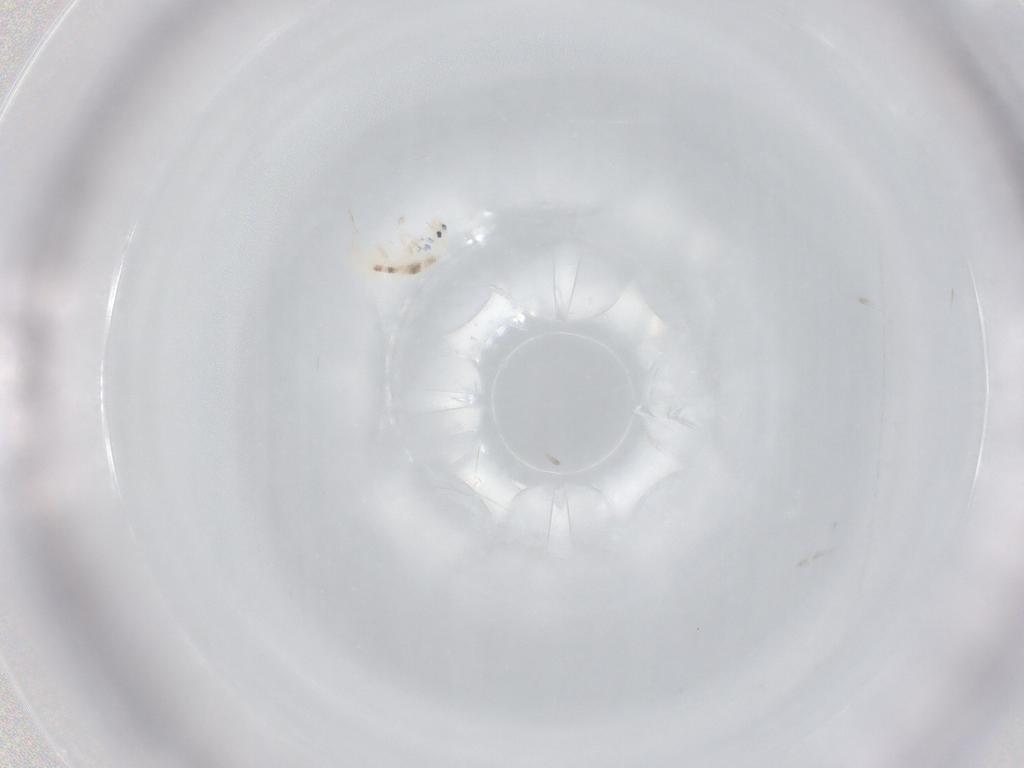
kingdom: Animalia
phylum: Arthropoda
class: Collembola
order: Entomobryomorpha
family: Entomobryidae
